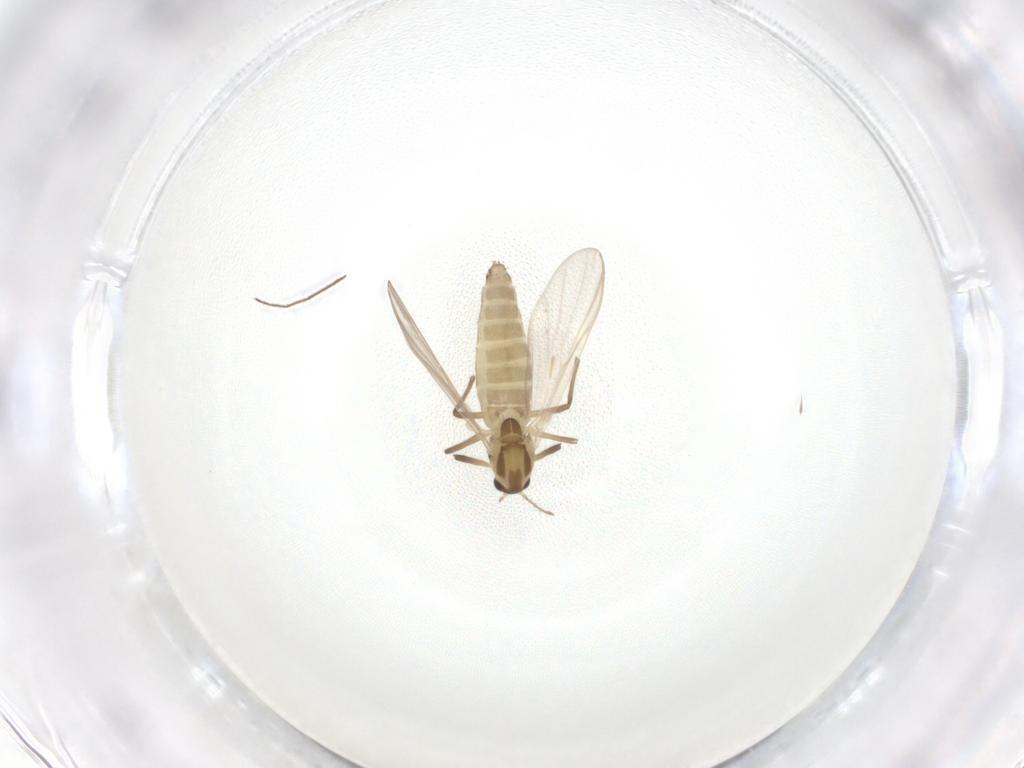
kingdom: Animalia
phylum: Arthropoda
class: Insecta
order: Diptera
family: Chironomidae
